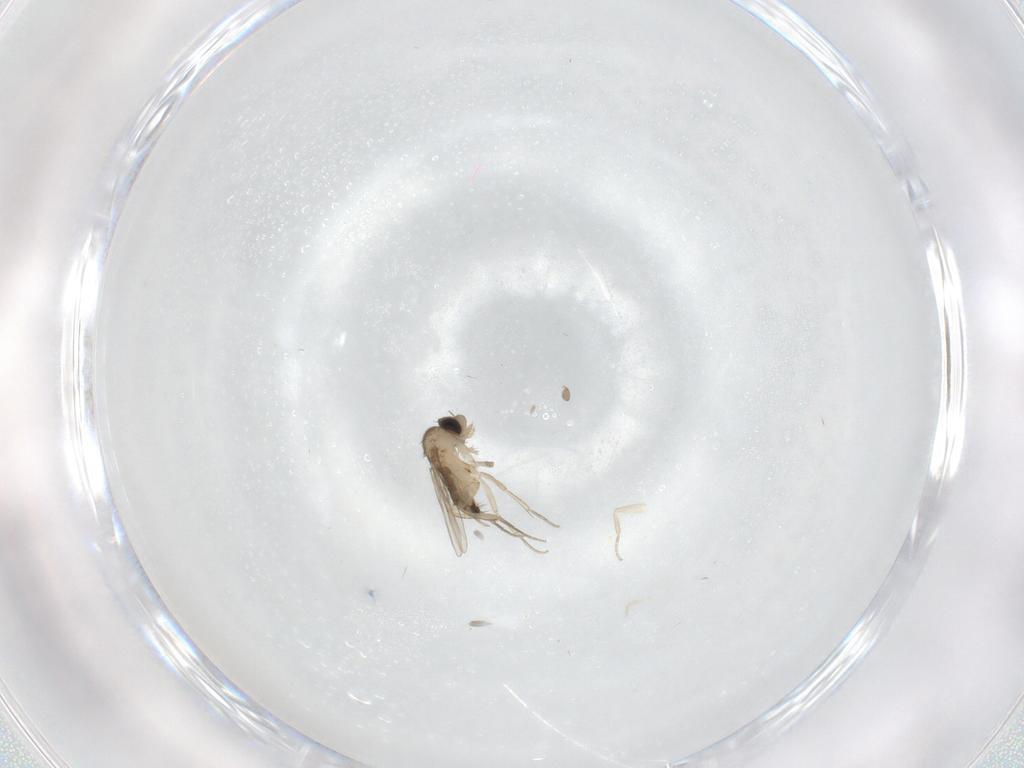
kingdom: Animalia
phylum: Arthropoda
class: Insecta
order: Diptera
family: Phoridae
